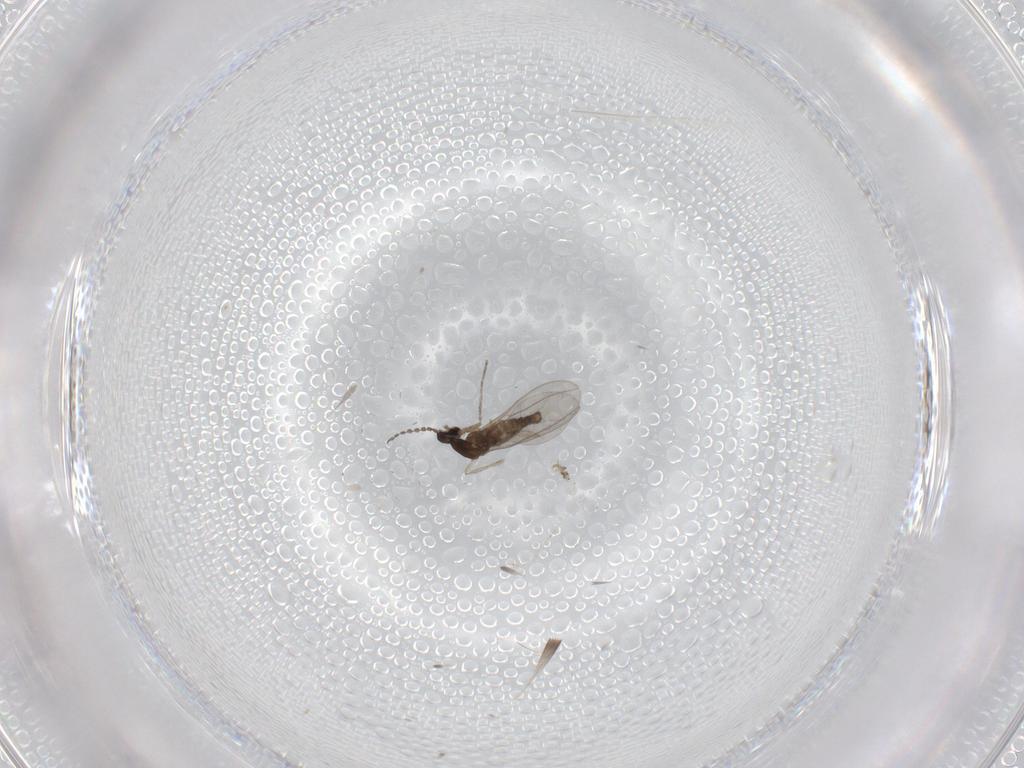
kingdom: Animalia
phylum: Arthropoda
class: Insecta
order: Diptera
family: Cecidomyiidae
